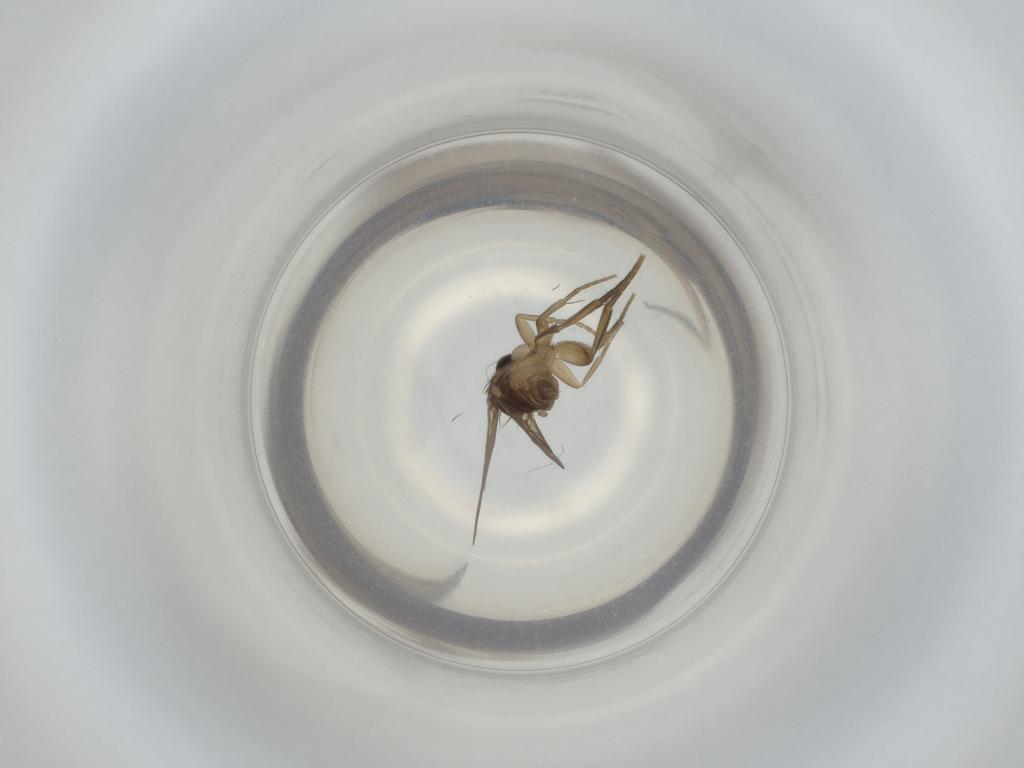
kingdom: Animalia
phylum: Arthropoda
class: Insecta
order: Diptera
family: Phoridae
